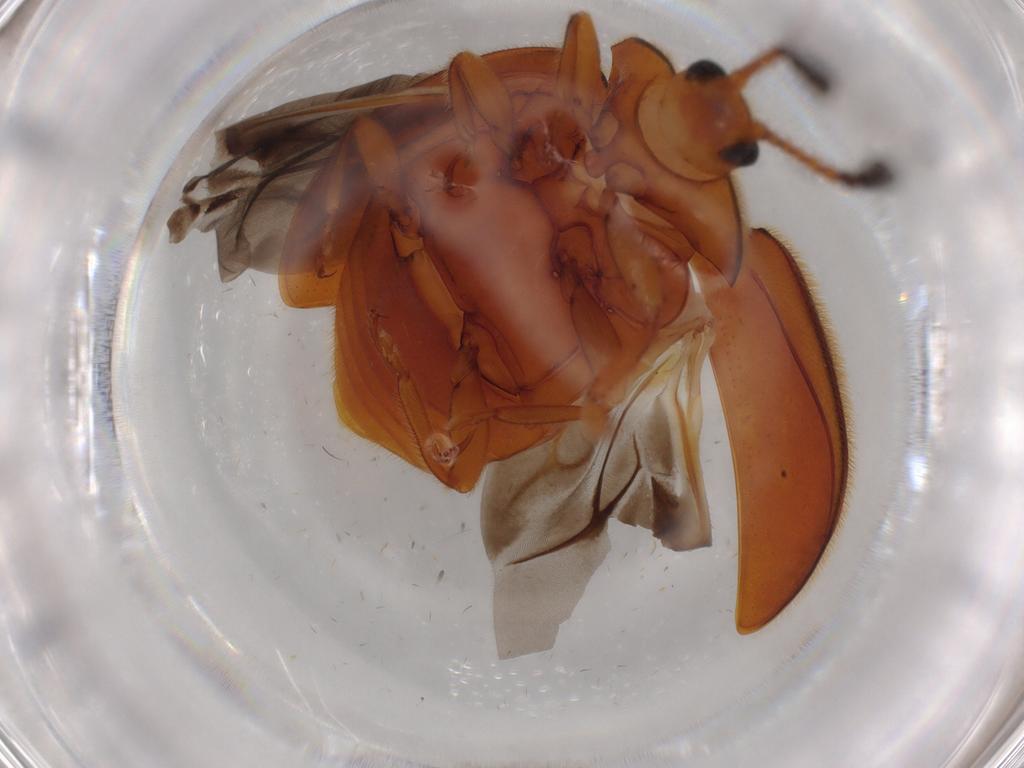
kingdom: Animalia
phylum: Arthropoda
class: Insecta
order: Coleoptera
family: Endomychidae
